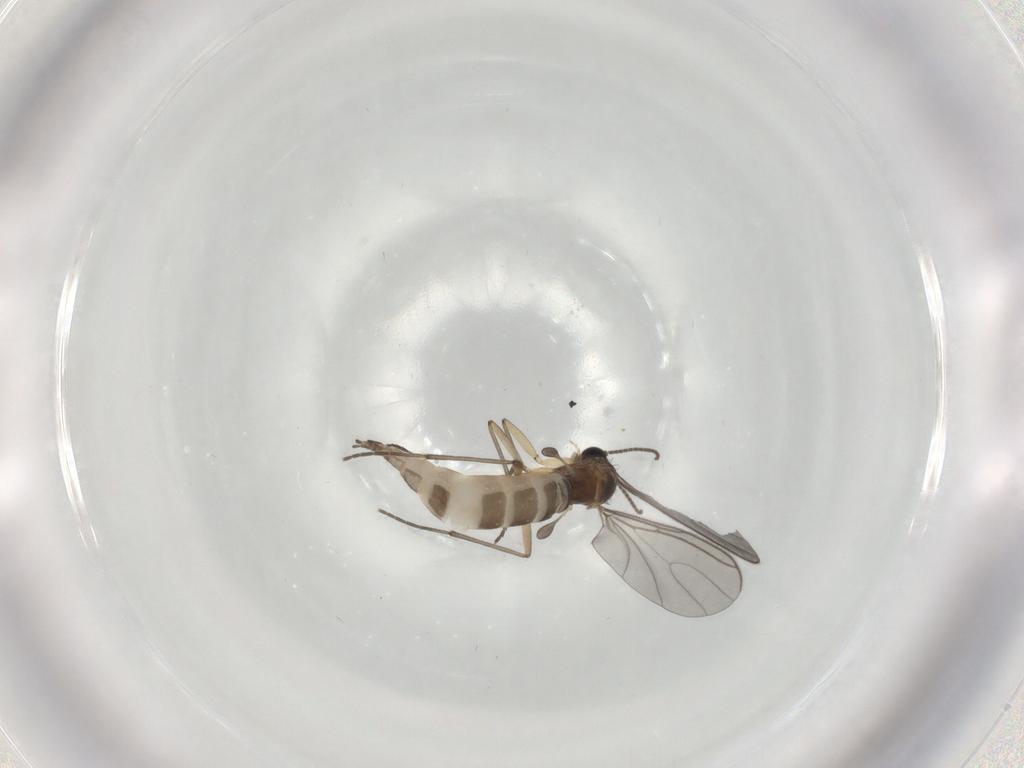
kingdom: Animalia
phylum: Arthropoda
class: Insecta
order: Diptera
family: Sciaridae
